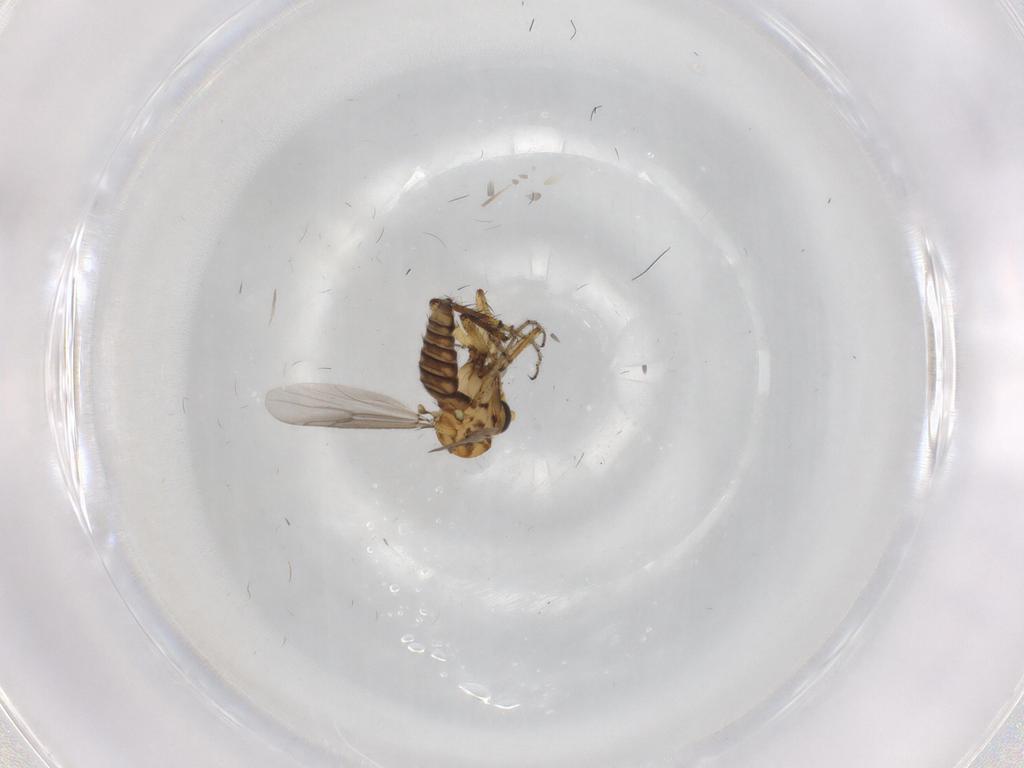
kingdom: Animalia
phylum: Arthropoda
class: Insecta
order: Diptera
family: Ceratopogonidae
